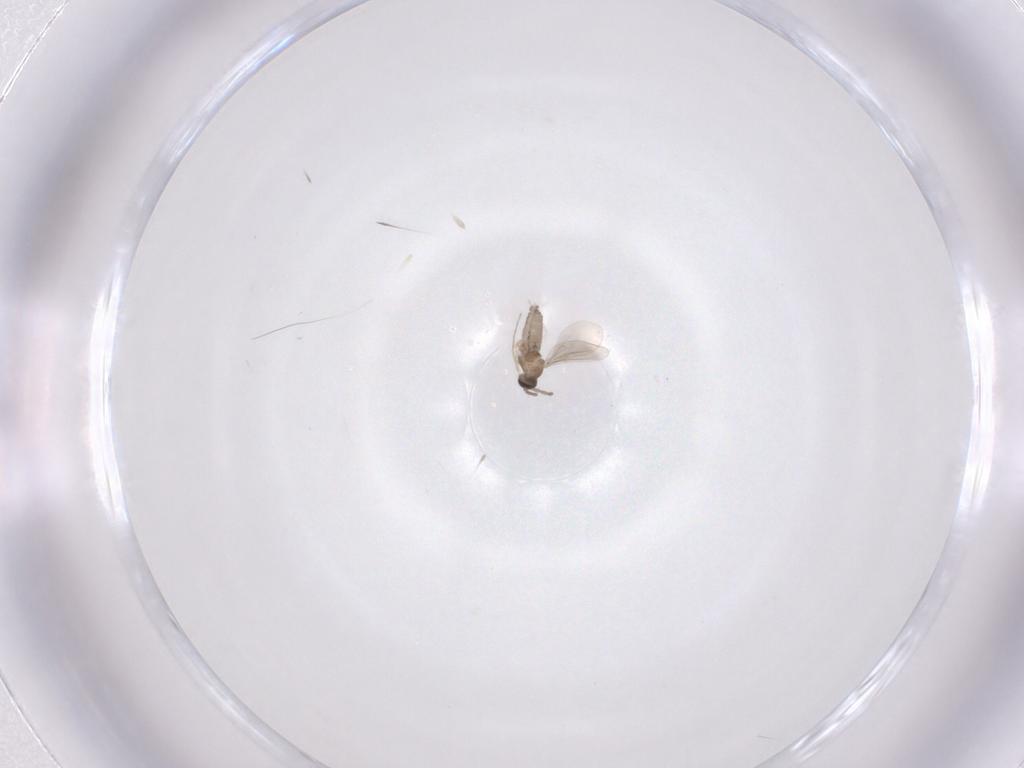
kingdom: Animalia
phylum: Arthropoda
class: Insecta
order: Diptera
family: Cecidomyiidae
